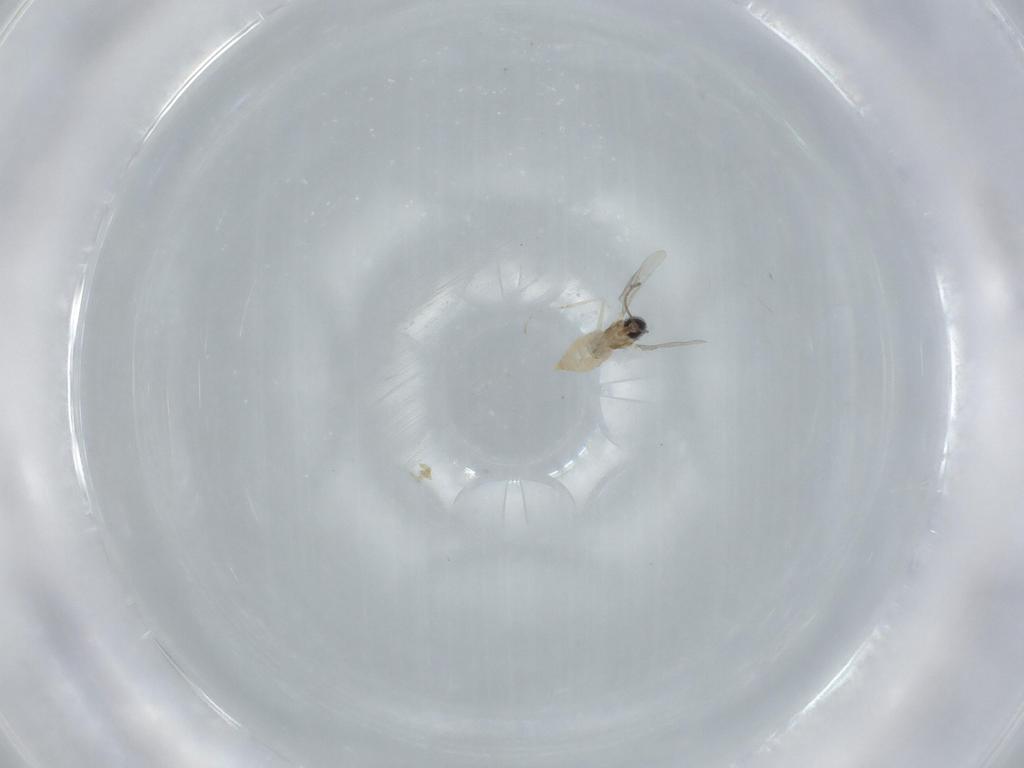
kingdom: Animalia
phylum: Arthropoda
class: Insecta
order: Diptera
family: Cecidomyiidae
